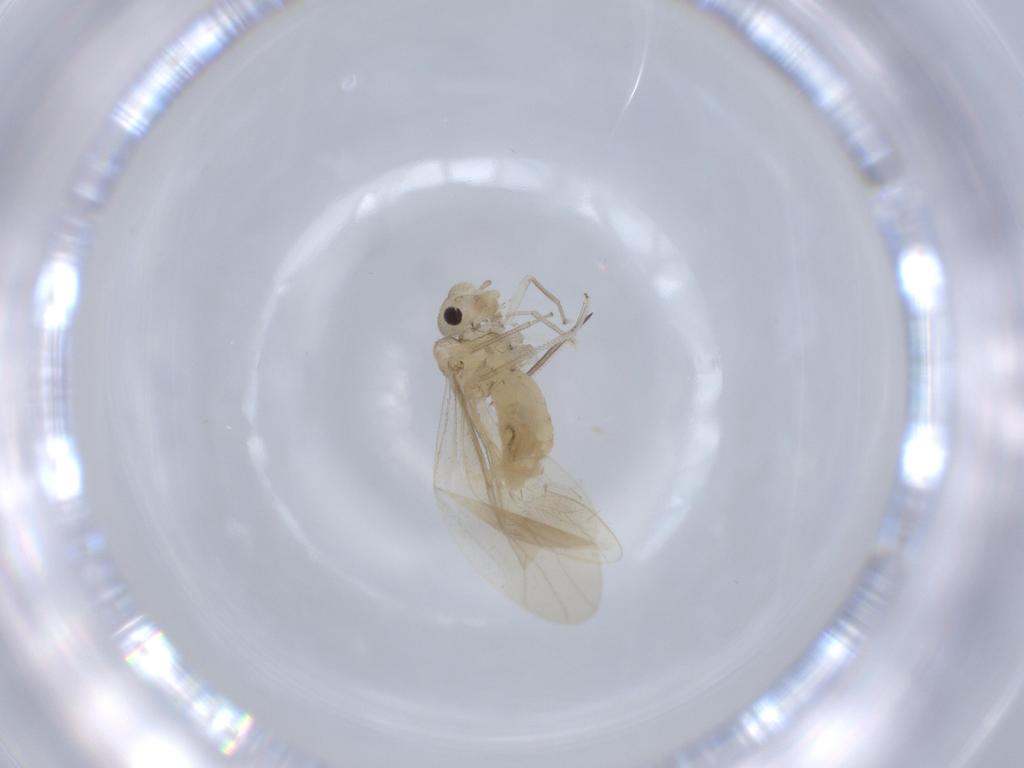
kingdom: Animalia
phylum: Arthropoda
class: Insecta
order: Psocodea
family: Caeciliusidae
